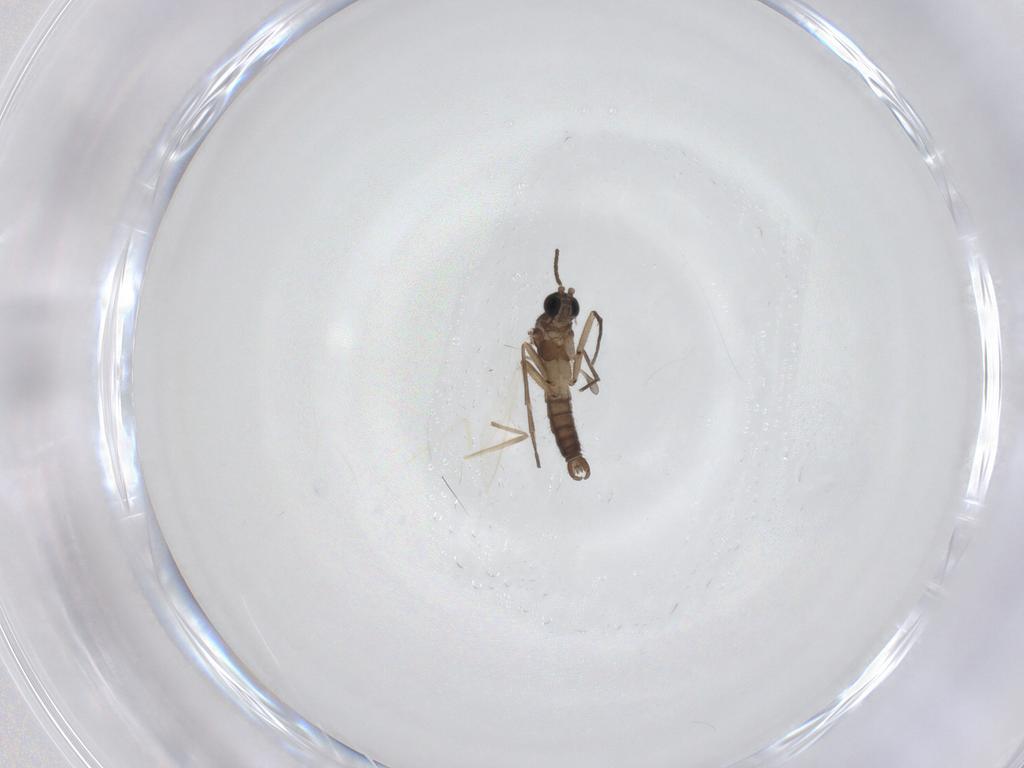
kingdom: Animalia
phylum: Arthropoda
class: Insecta
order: Diptera
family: Sciaridae
